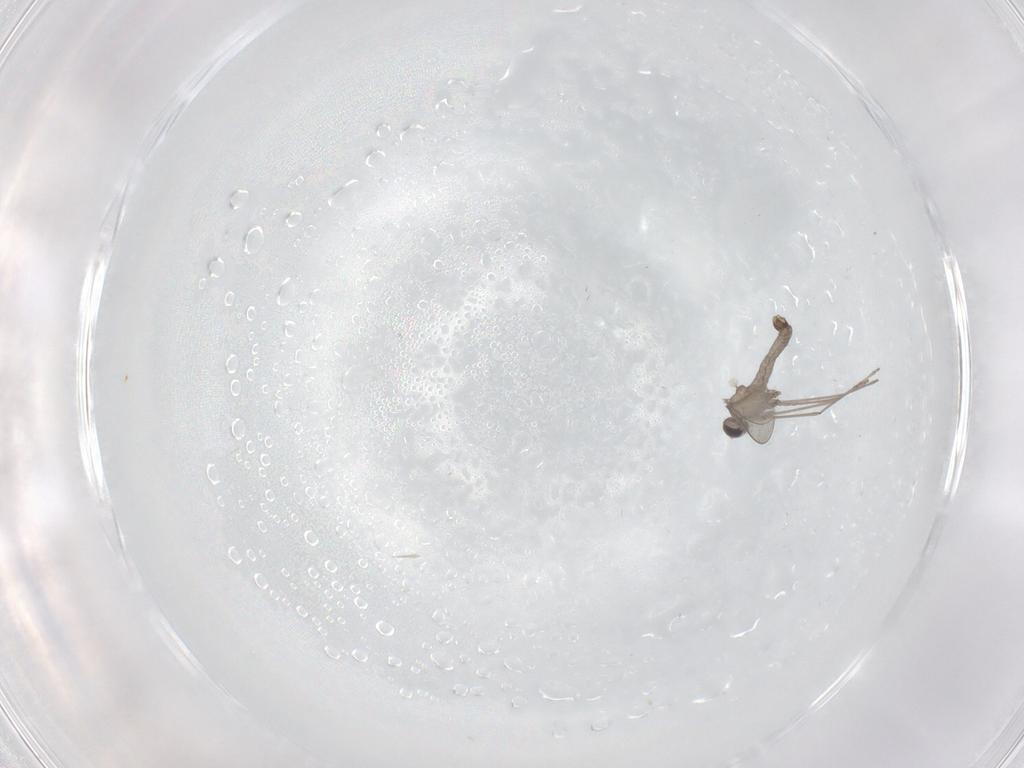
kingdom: Animalia
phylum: Arthropoda
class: Insecta
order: Diptera
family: Cecidomyiidae
